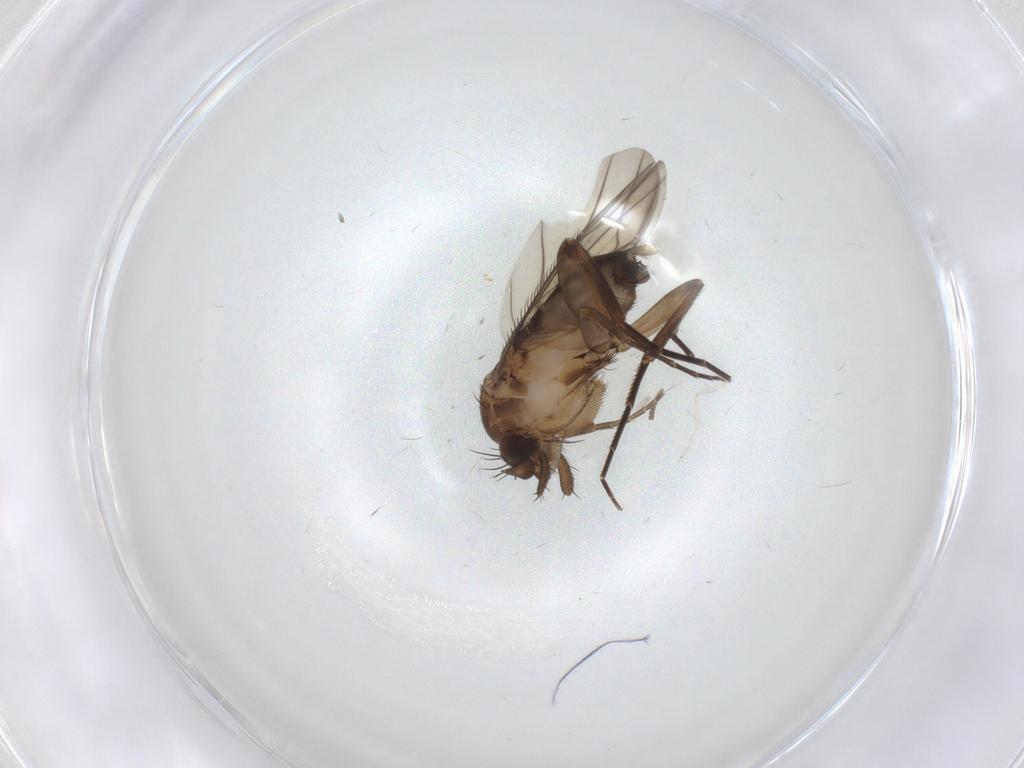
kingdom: Animalia
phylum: Arthropoda
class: Insecta
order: Diptera
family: Phoridae
